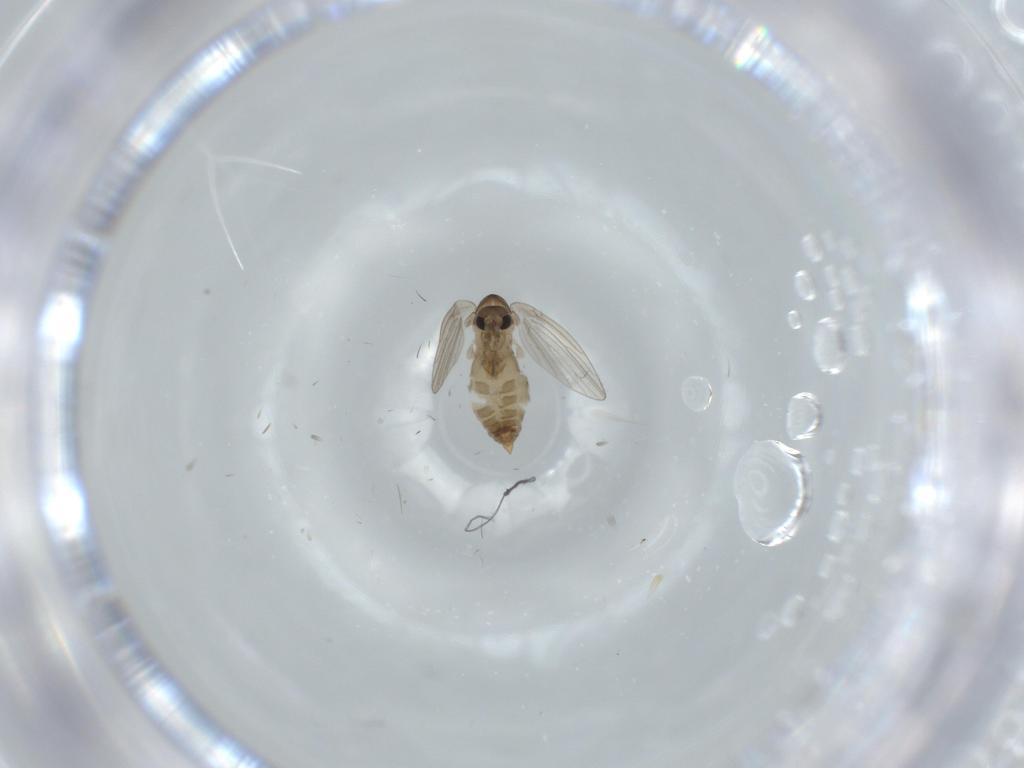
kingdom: Animalia
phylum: Arthropoda
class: Insecta
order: Diptera
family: Psychodidae
